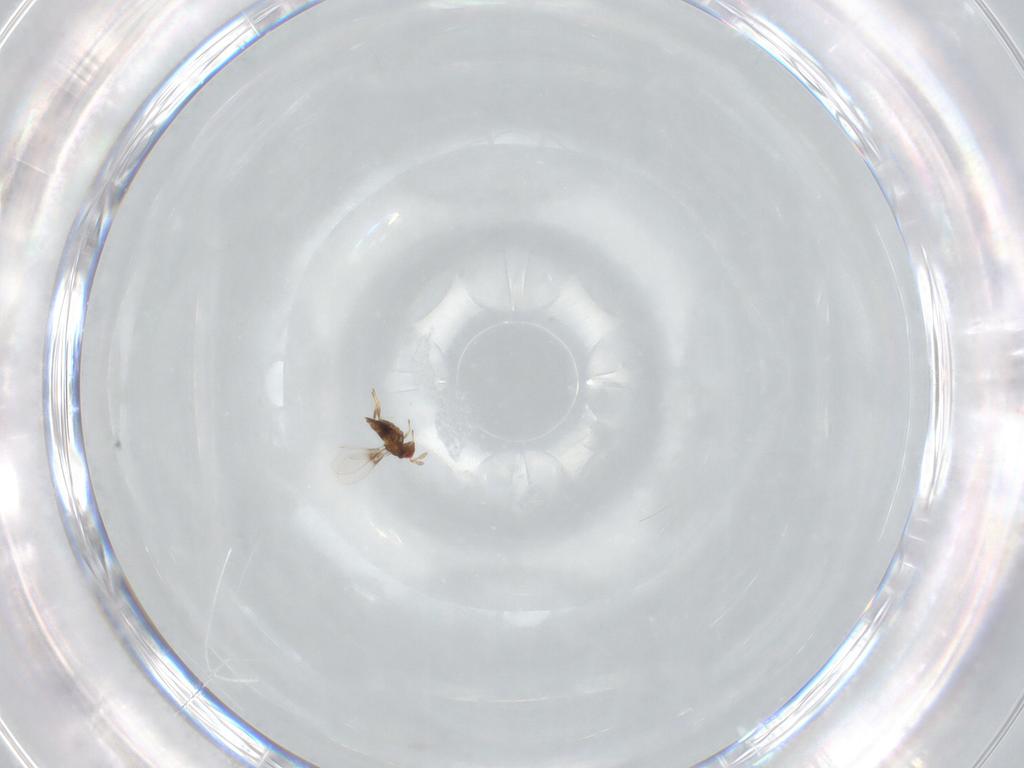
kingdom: Animalia
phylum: Arthropoda
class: Insecta
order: Hymenoptera
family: Trichogrammatidae
